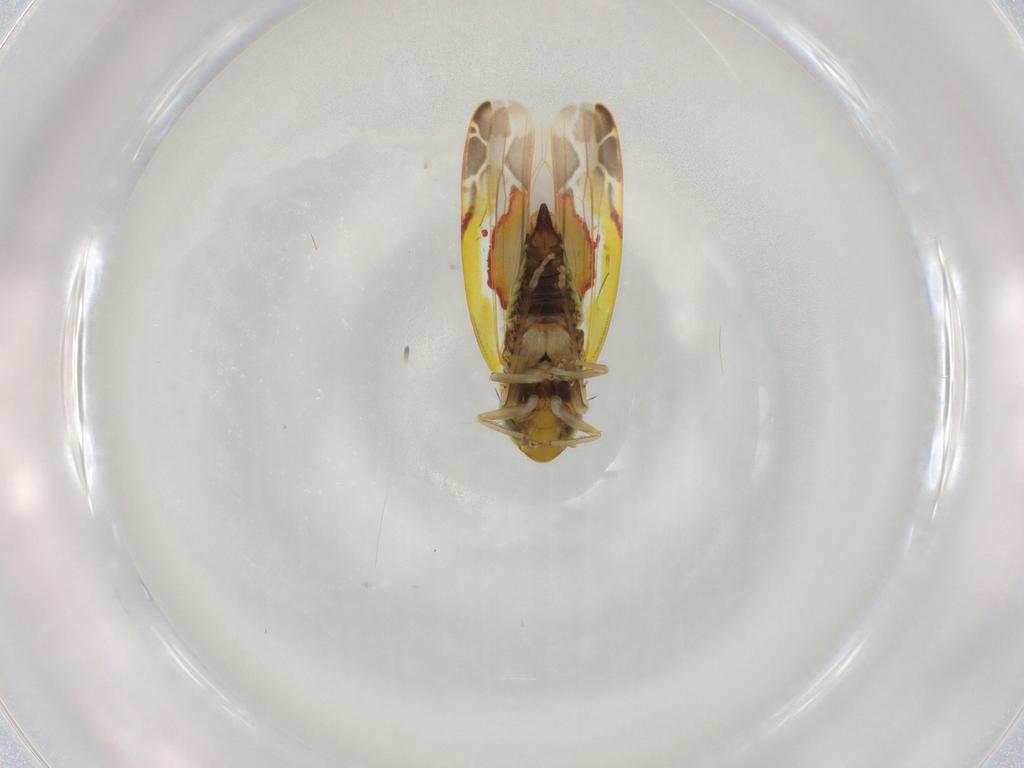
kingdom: Animalia
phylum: Arthropoda
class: Insecta
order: Hemiptera
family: Cicadellidae
